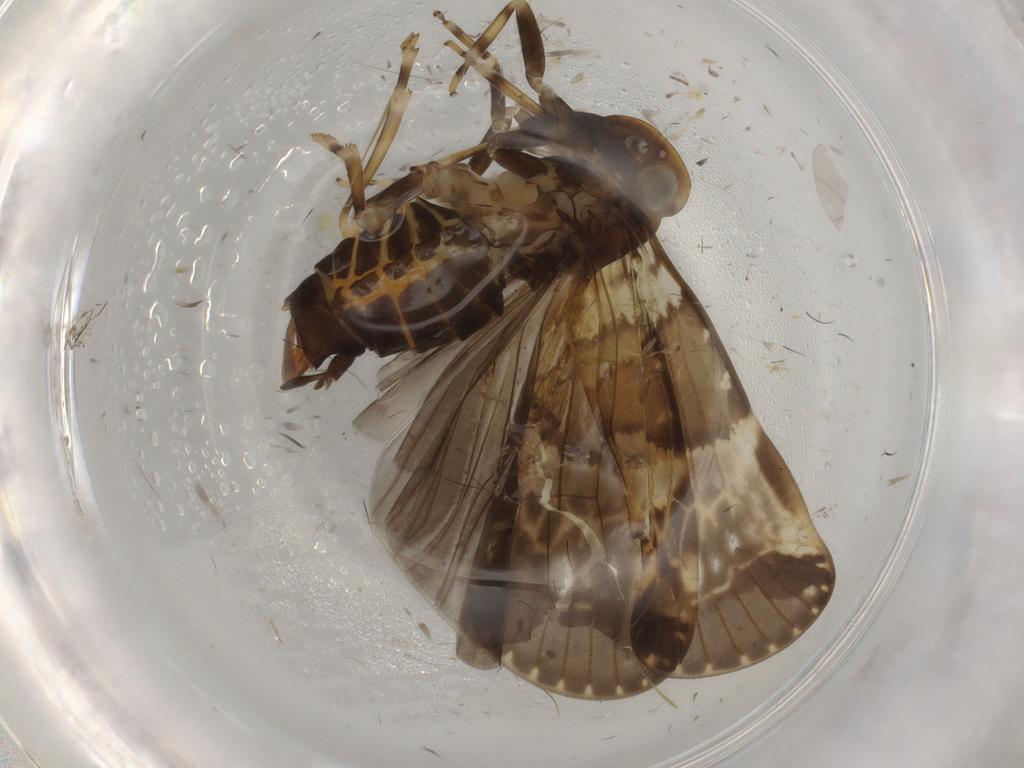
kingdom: Animalia
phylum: Arthropoda
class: Insecta
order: Hemiptera
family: Cixiidae
